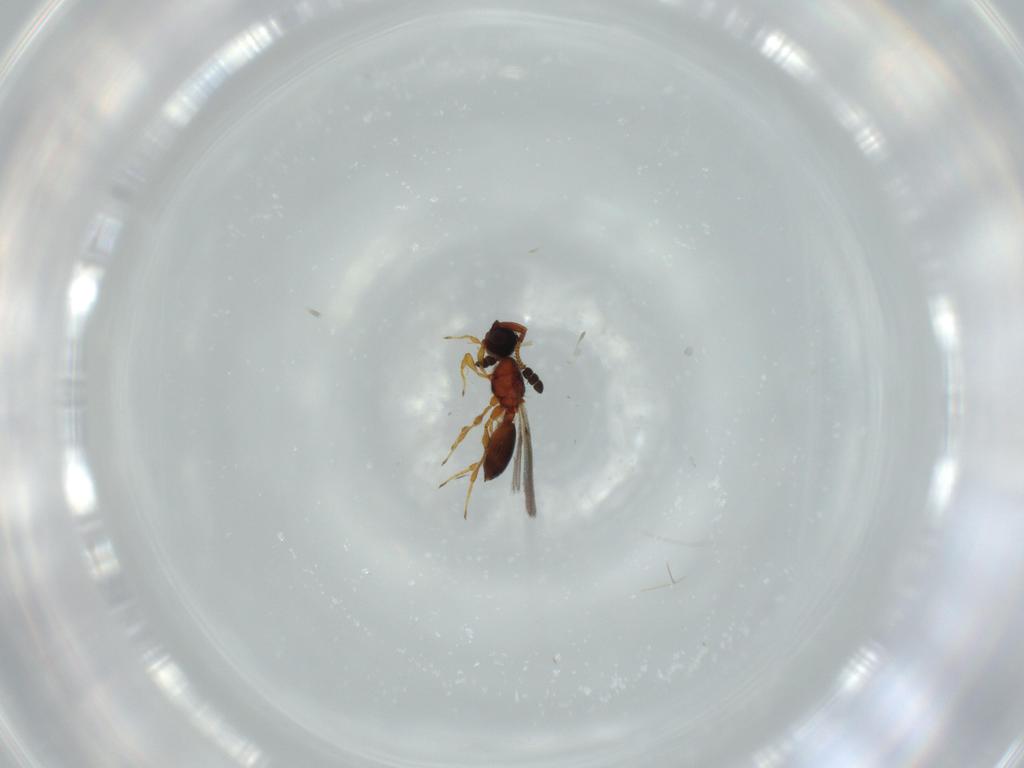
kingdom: Animalia
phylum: Arthropoda
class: Insecta
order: Hymenoptera
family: Diapriidae
